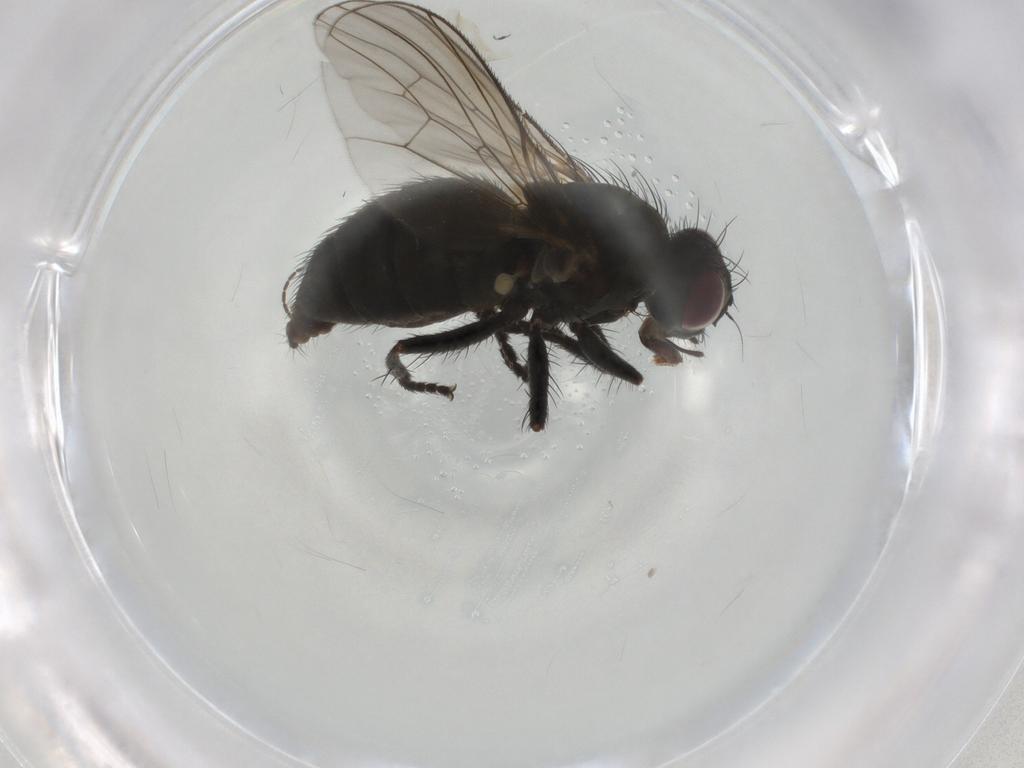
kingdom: Animalia
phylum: Arthropoda
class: Insecta
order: Diptera
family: Muscidae
